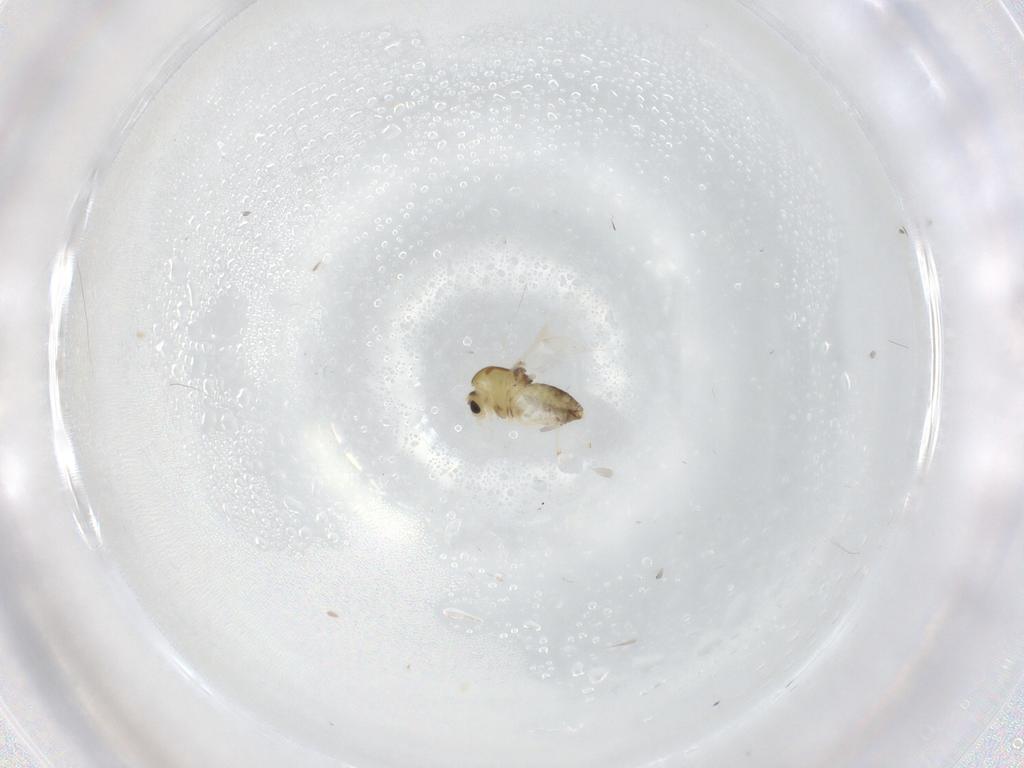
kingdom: Animalia
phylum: Arthropoda
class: Insecta
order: Diptera
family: Chironomidae
